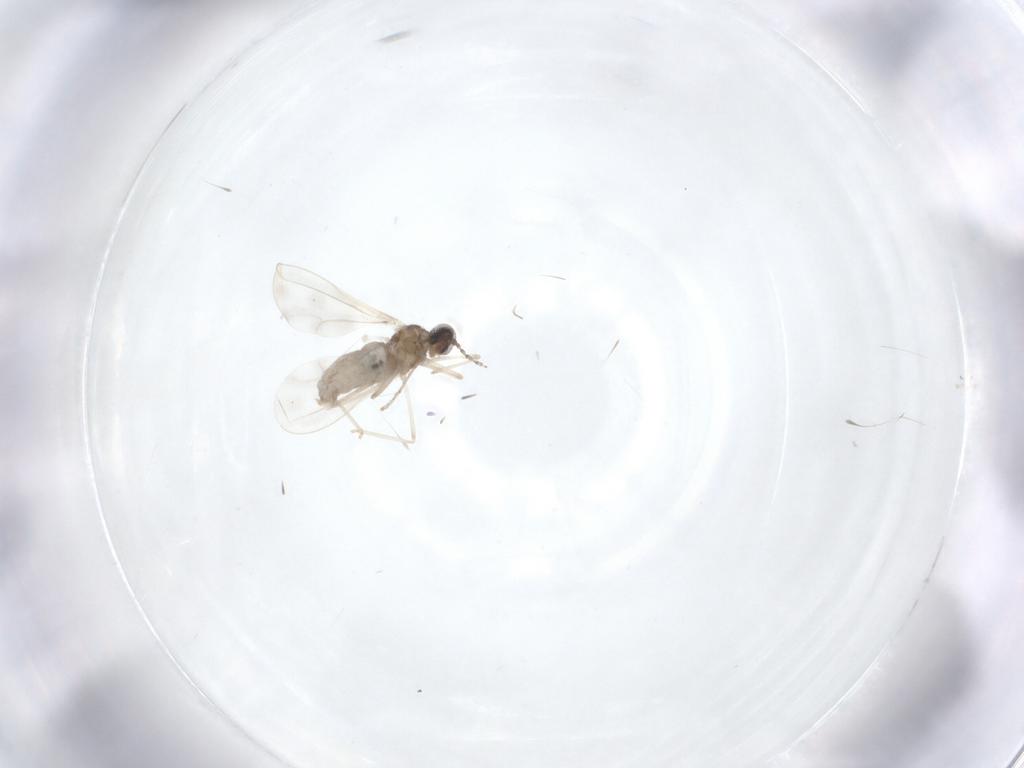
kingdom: Animalia
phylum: Arthropoda
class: Insecta
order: Diptera
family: Cecidomyiidae
